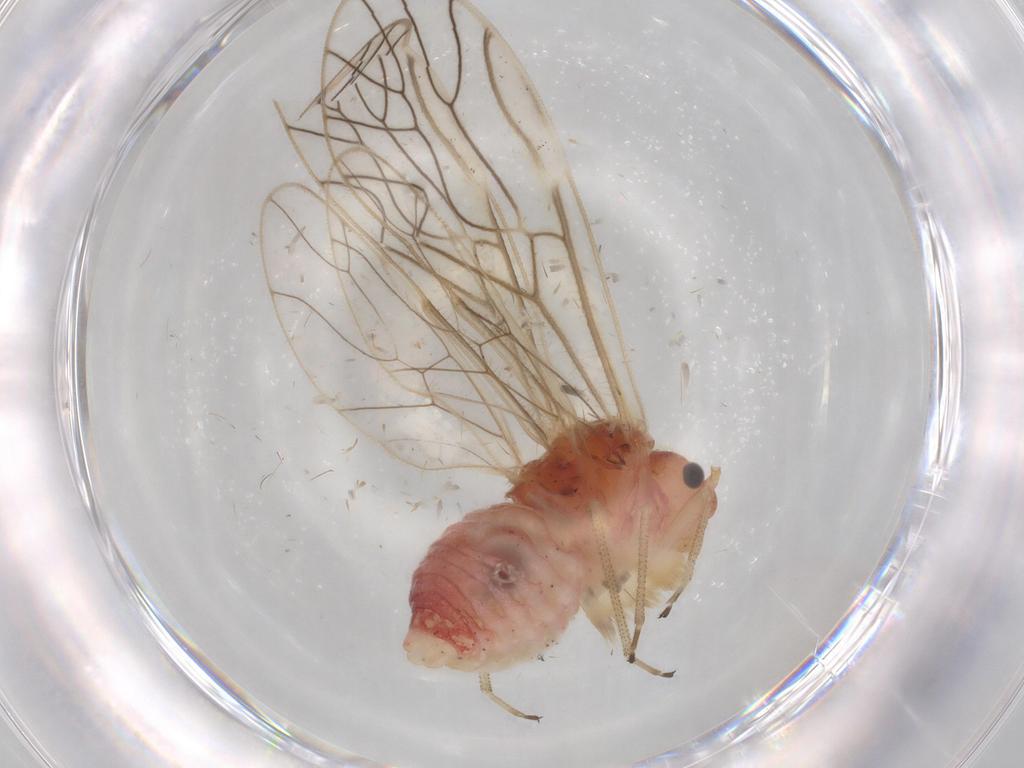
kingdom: Animalia
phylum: Arthropoda
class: Insecta
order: Psocodea
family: Amphipsocidae
